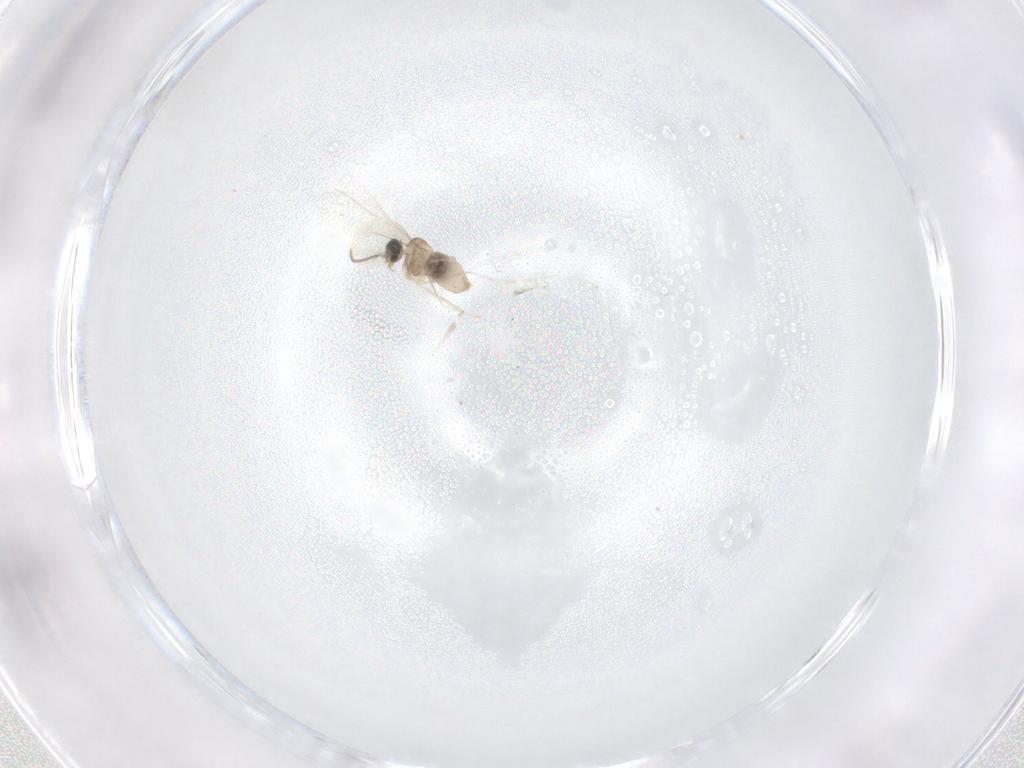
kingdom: Animalia
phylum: Arthropoda
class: Insecta
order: Diptera
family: Cecidomyiidae
